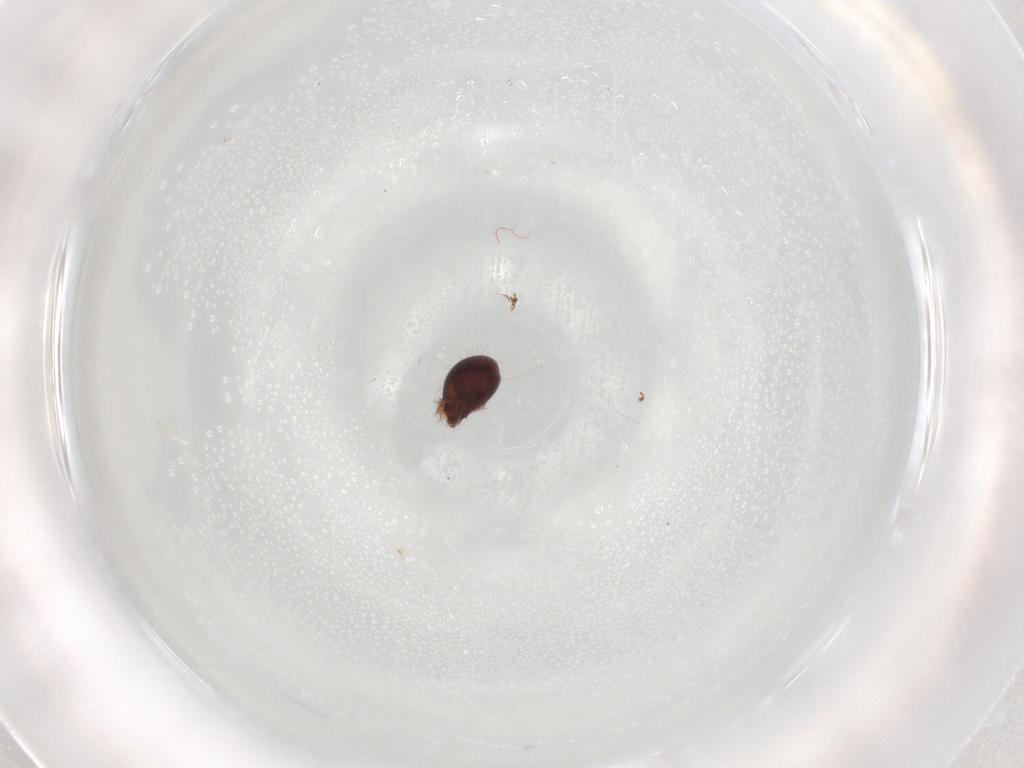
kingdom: Animalia
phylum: Arthropoda
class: Arachnida
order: Sarcoptiformes
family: Ceratozetidae
